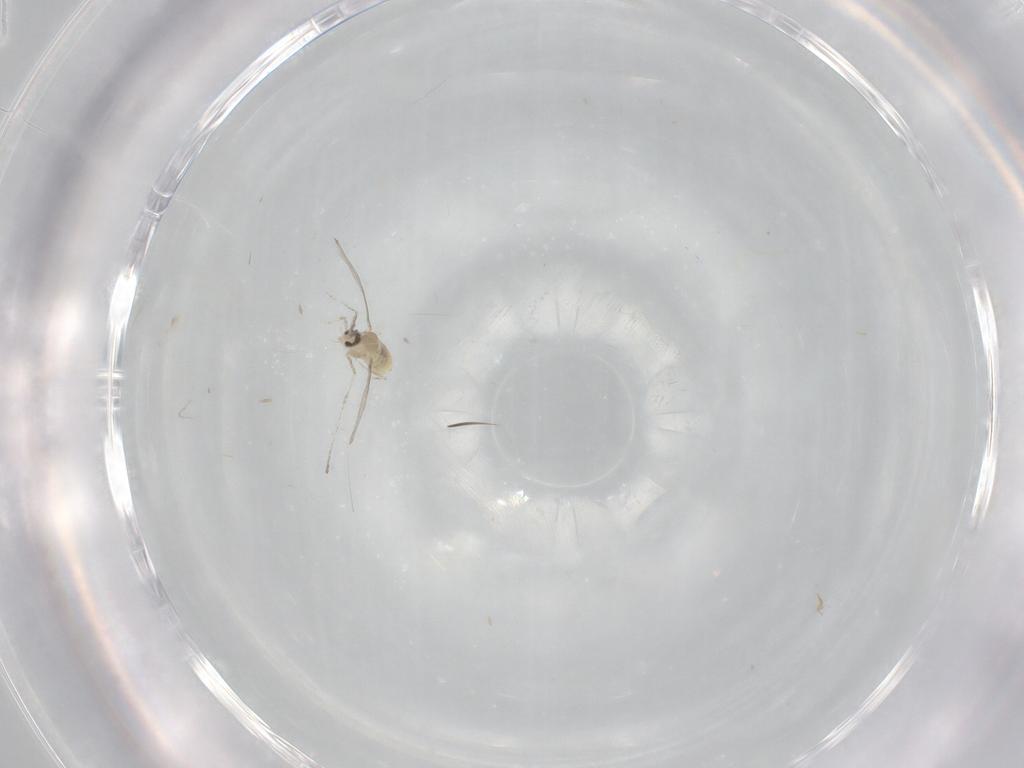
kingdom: Animalia
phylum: Arthropoda
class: Insecta
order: Diptera
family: Cecidomyiidae
